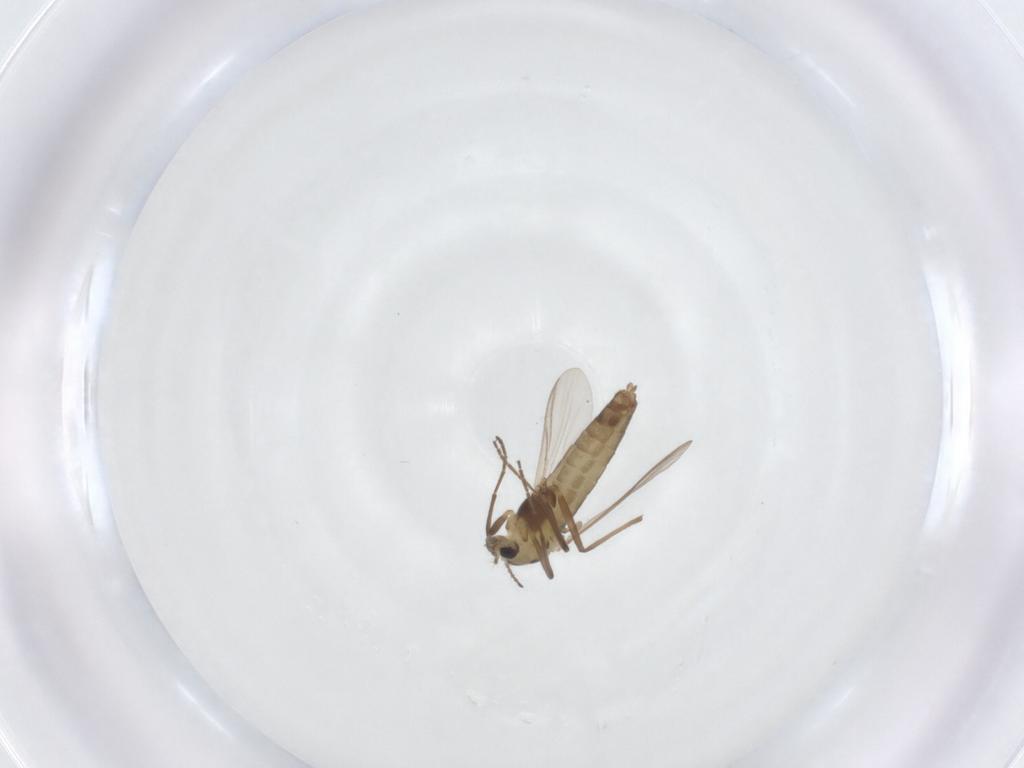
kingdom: Animalia
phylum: Arthropoda
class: Insecta
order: Diptera
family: Chironomidae
